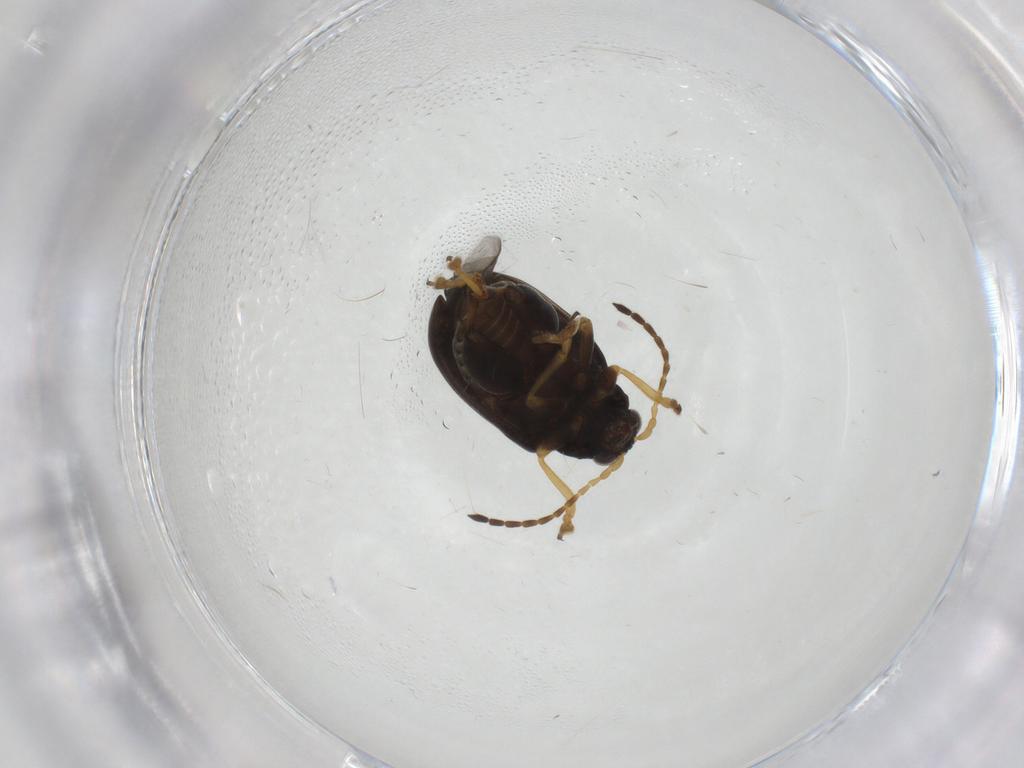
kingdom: Animalia
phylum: Arthropoda
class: Insecta
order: Coleoptera
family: Chrysomelidae
